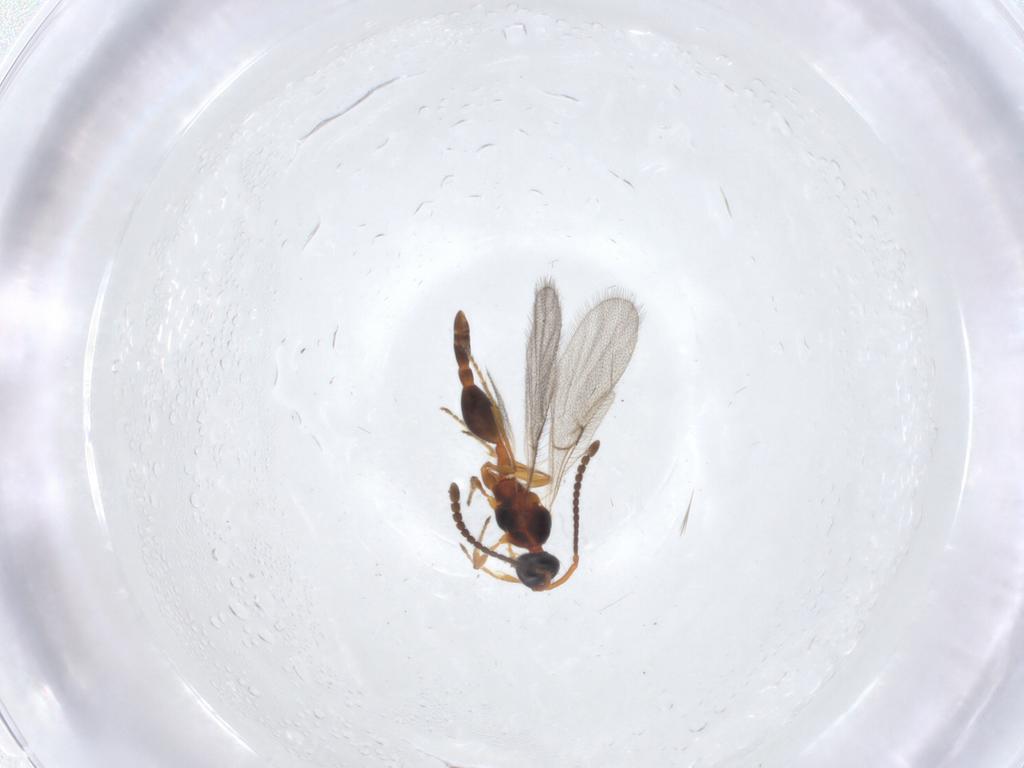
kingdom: Animalia
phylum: Arthropoda
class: Insecta
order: Hymenoptera
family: Diapriidae
